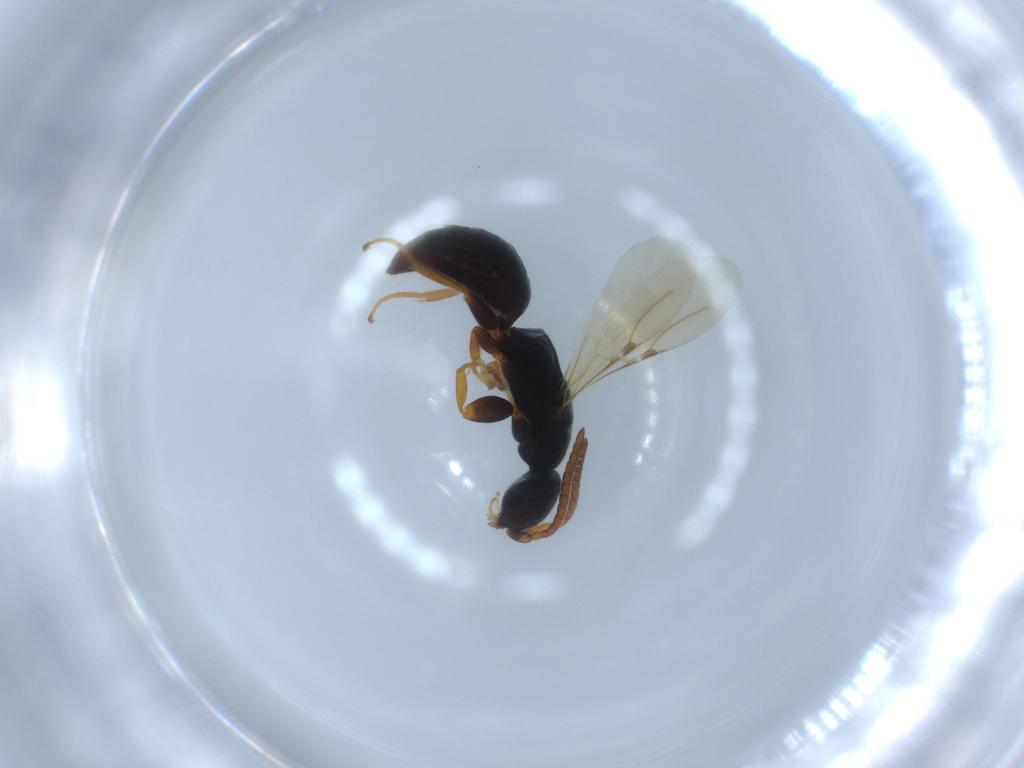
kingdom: Animalia
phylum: Arthropoda
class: Insecta
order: Hymenoptera
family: Bethylidae
